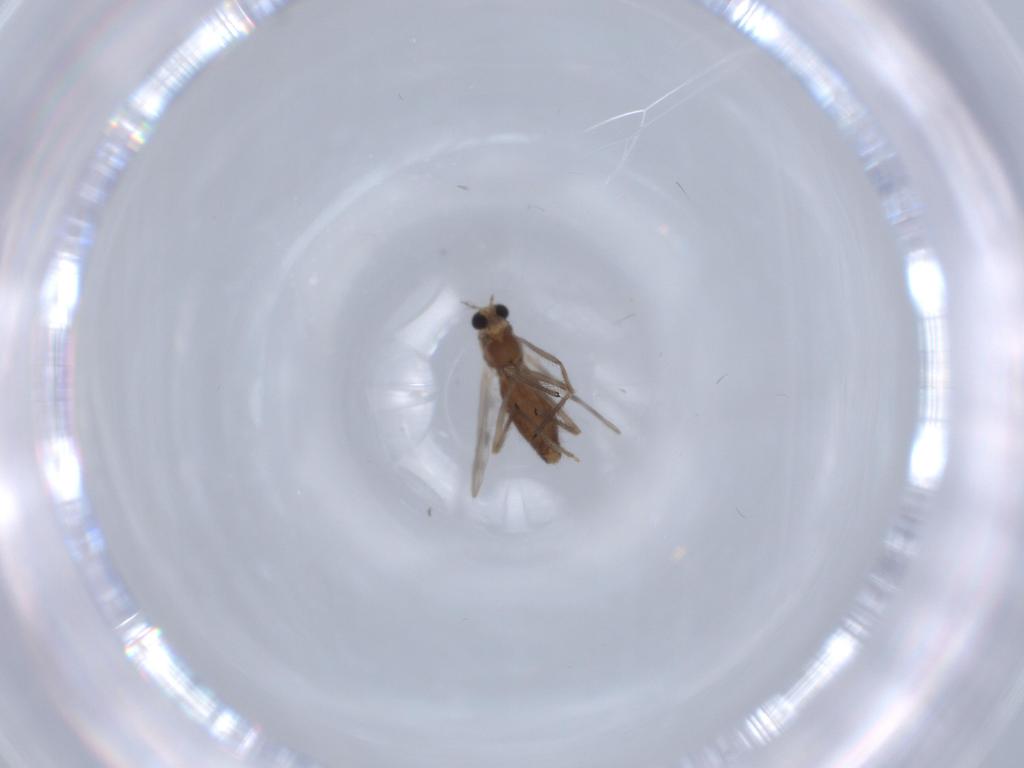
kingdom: Animalia
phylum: Arthropoda
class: Insecta
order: Diptera
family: Chironomidae
